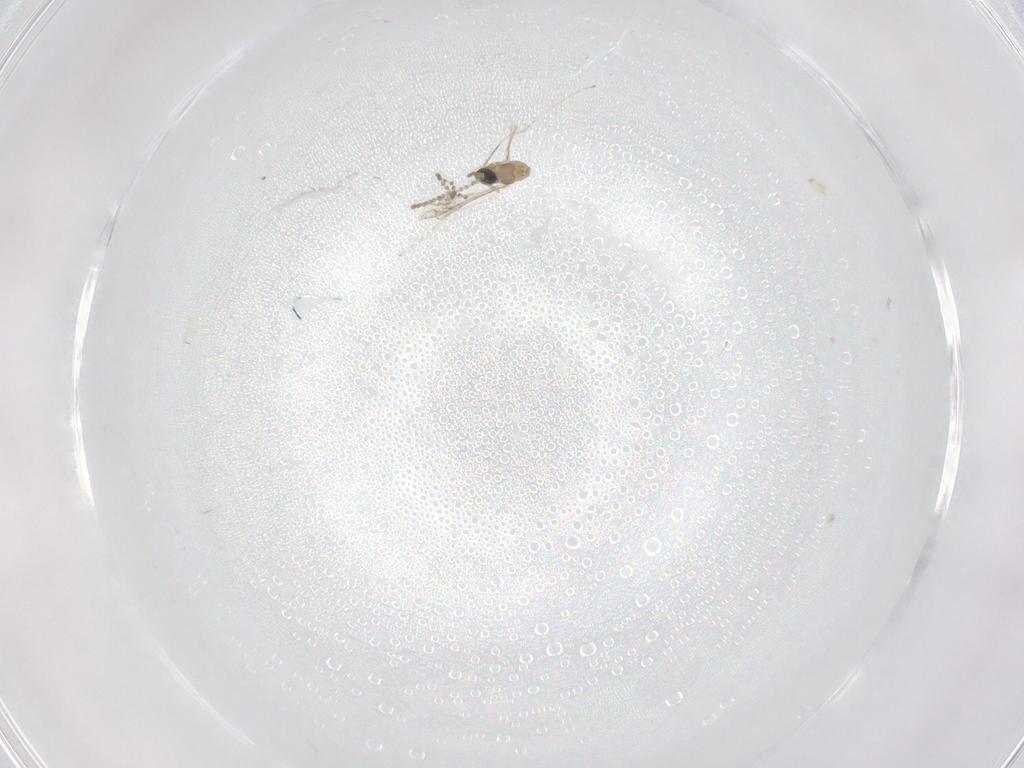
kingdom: Animalia
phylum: Arthropoda
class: Insecta
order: Diptera
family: Cecidomyiidae
